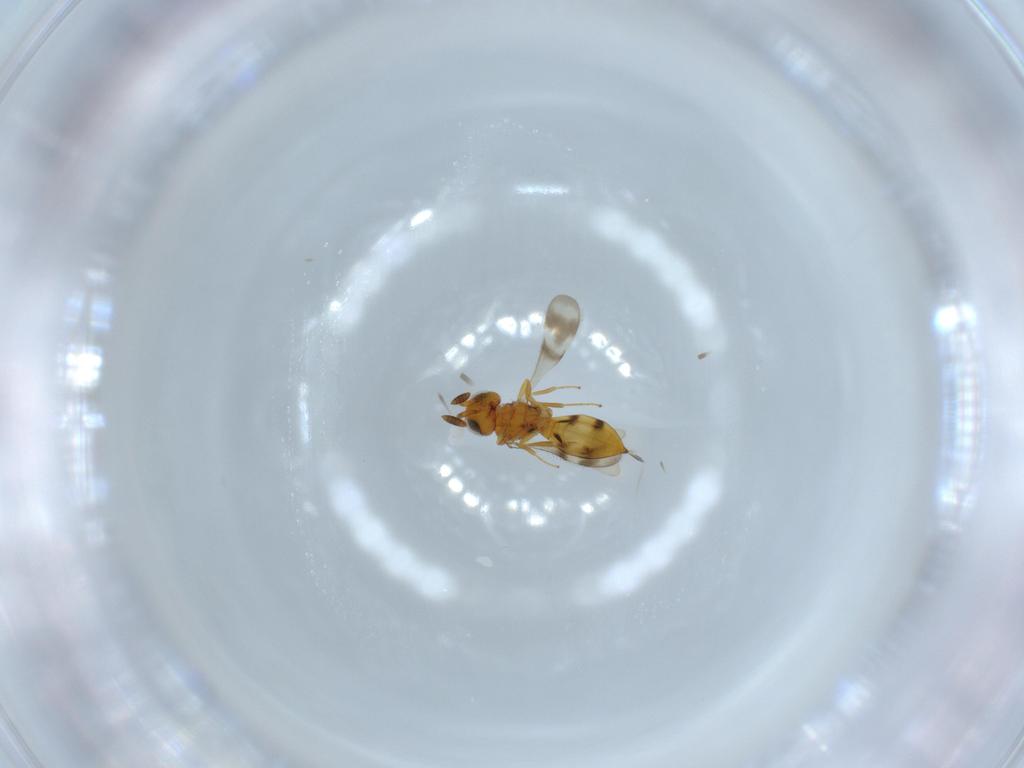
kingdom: Animalia
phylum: Arthropoda
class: Insecta
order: Hymenoptera
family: Scelionidae
